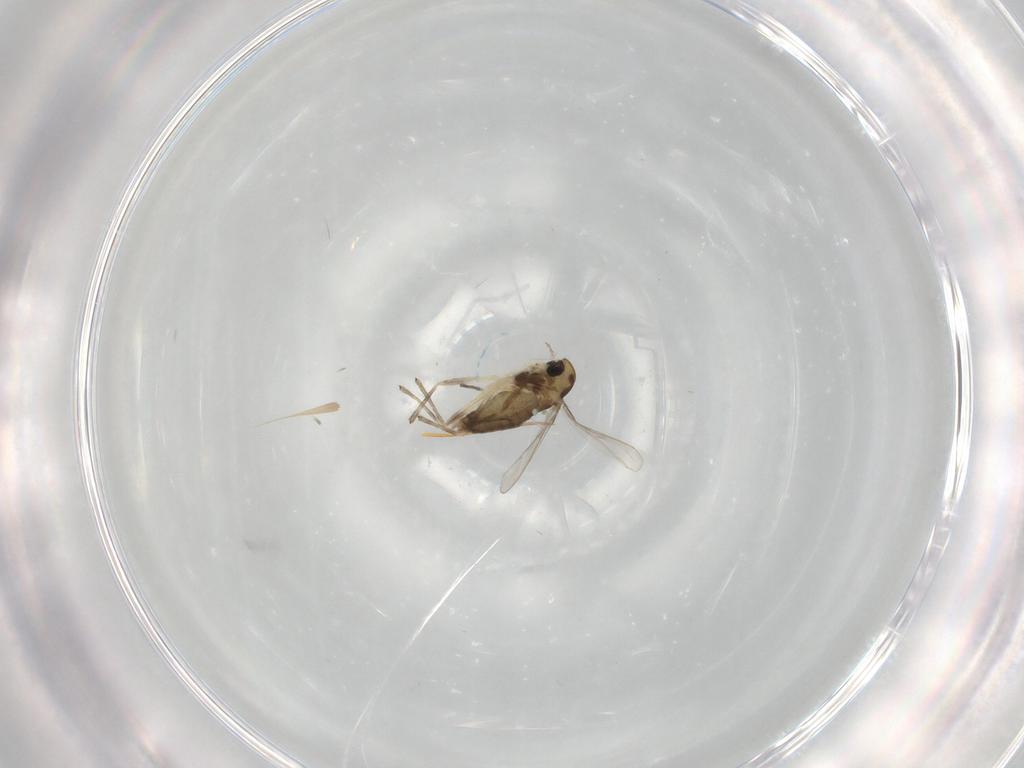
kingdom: Animalia
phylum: Arthropoda
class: Insecta
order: Diptera
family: Chironomidae
